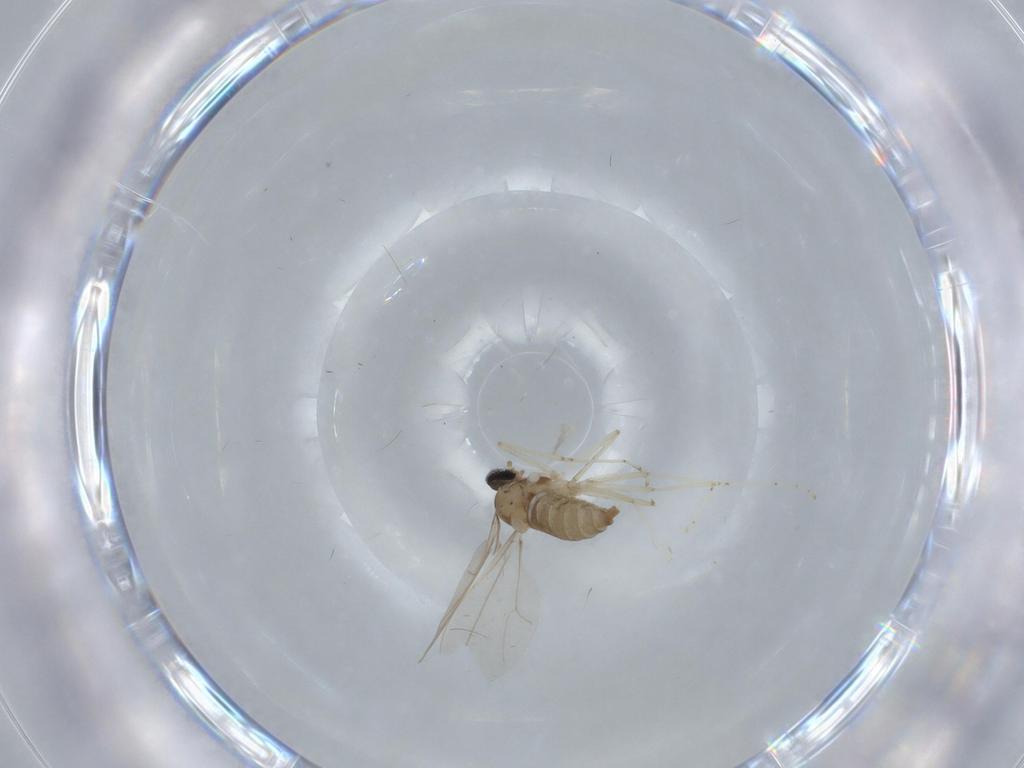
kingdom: Animalia
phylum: Arthropoda
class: Insecta
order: Diptera
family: Cecidomyiidae
